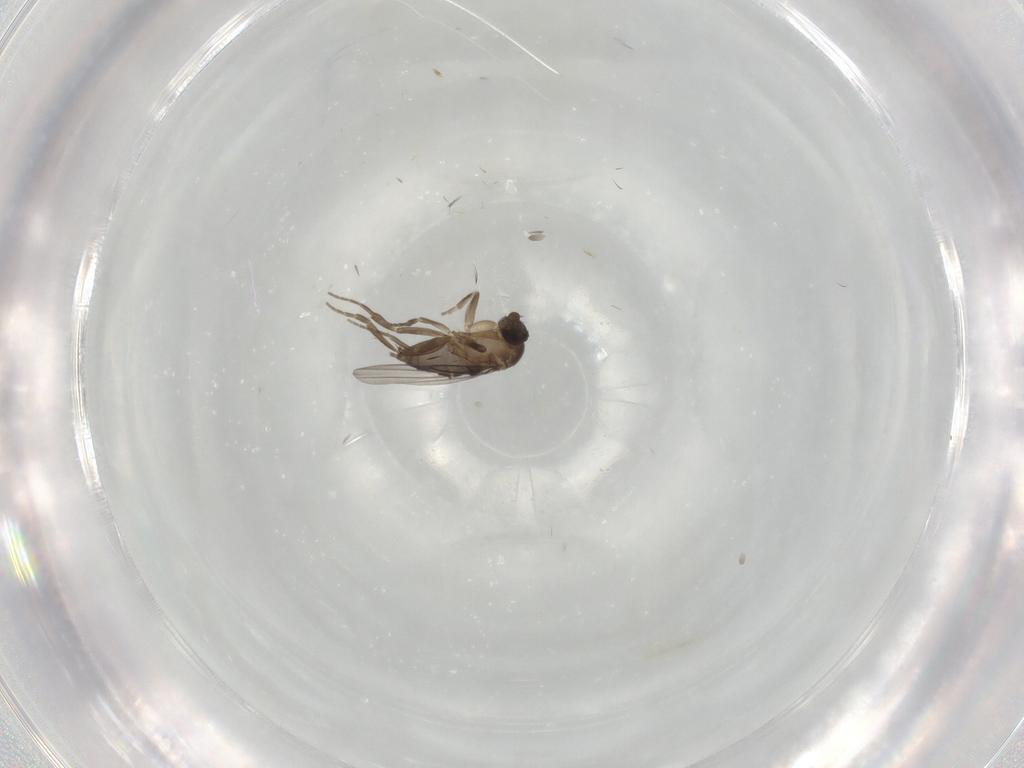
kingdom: Animalia
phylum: Arthropoda
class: Insecta
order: Diptera
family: Phoridae
